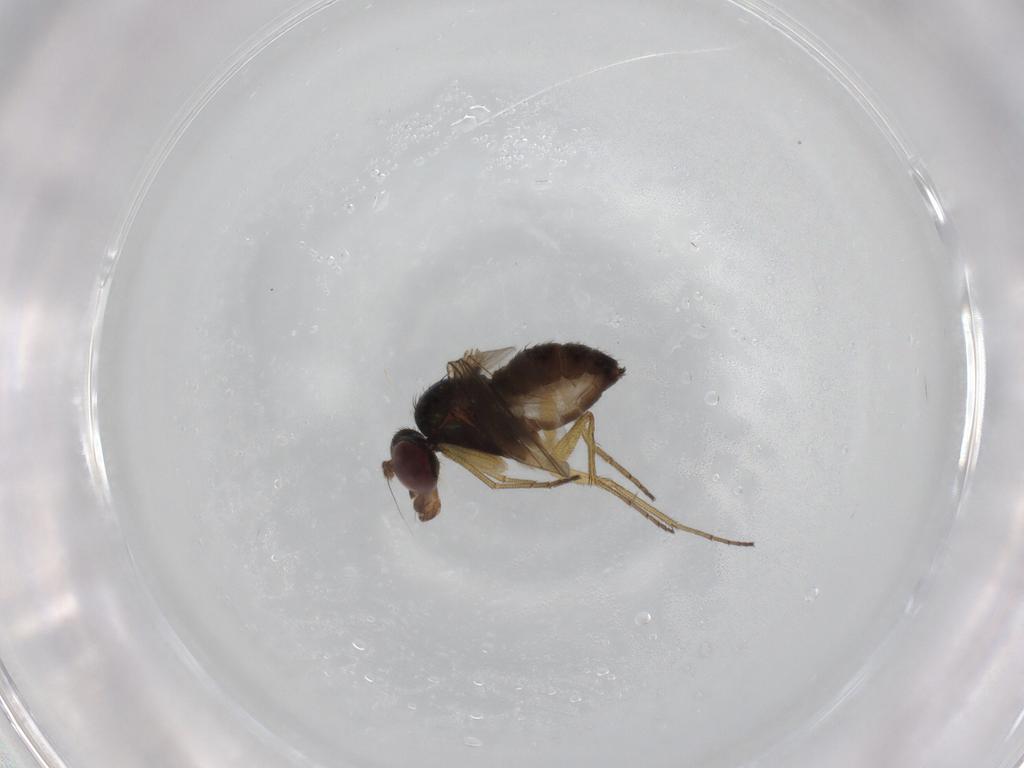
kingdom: Animalia
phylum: Arthropoda
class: Insecta
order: Diptera
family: Dolichopodidae
